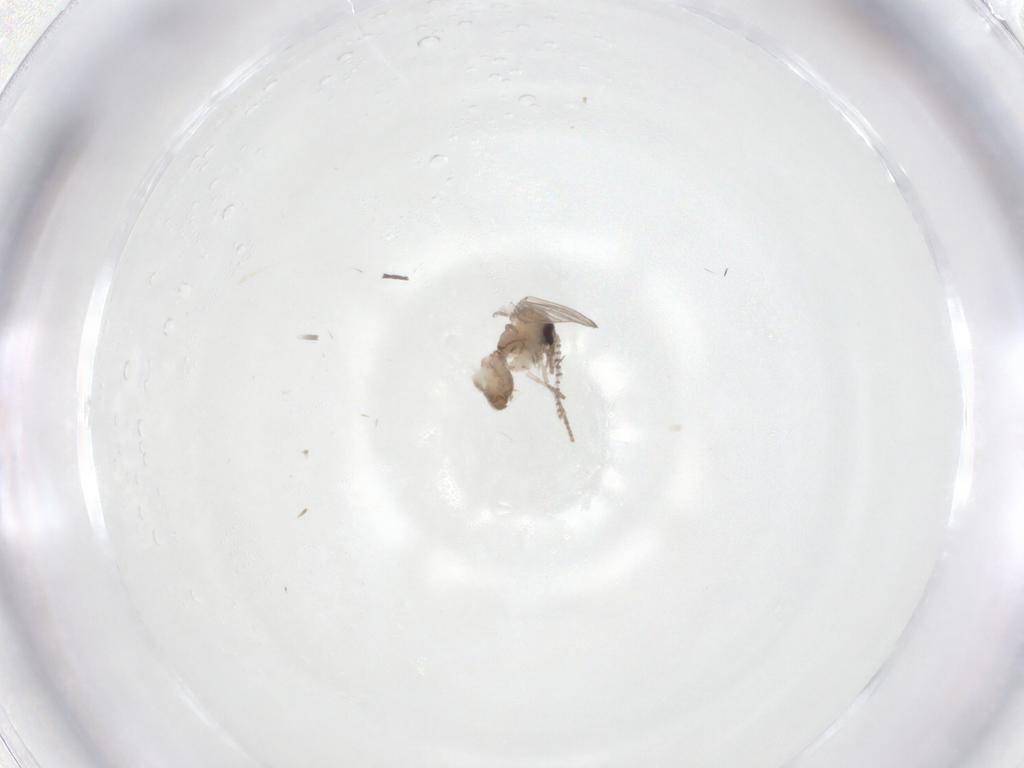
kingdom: Animalia
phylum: Arthropoda
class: Insecta
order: Diptera
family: Psychodidae
